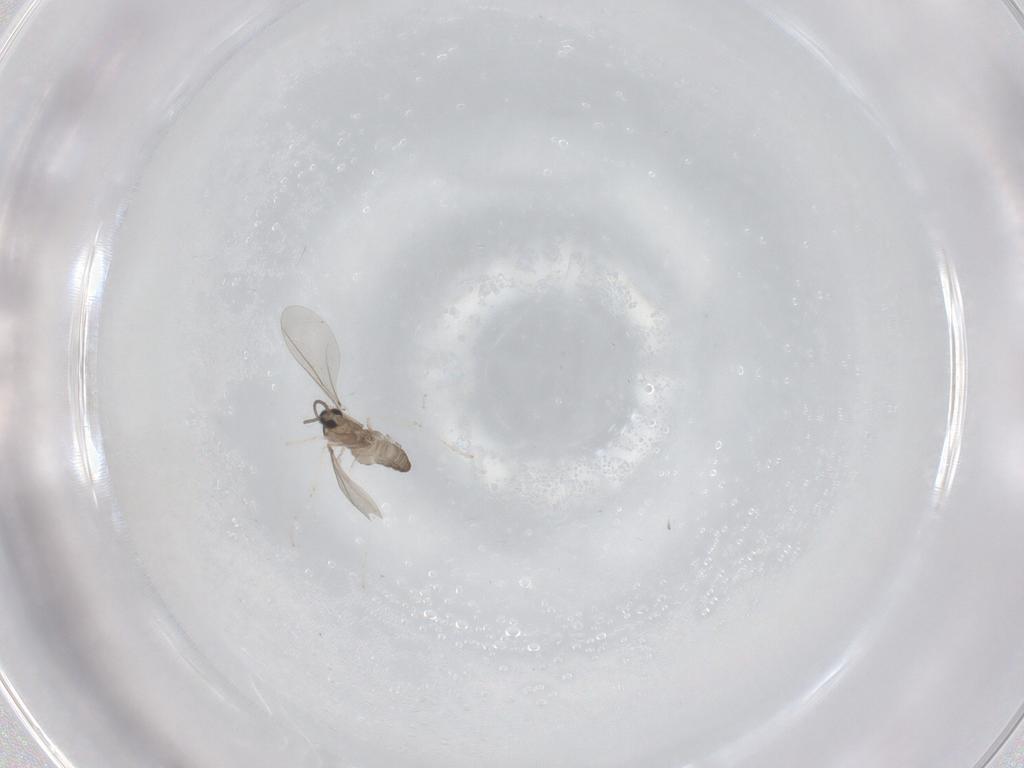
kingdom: Animalia
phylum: Arthropoda
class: Insecta
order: Diptera
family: Cecidomyiidae
